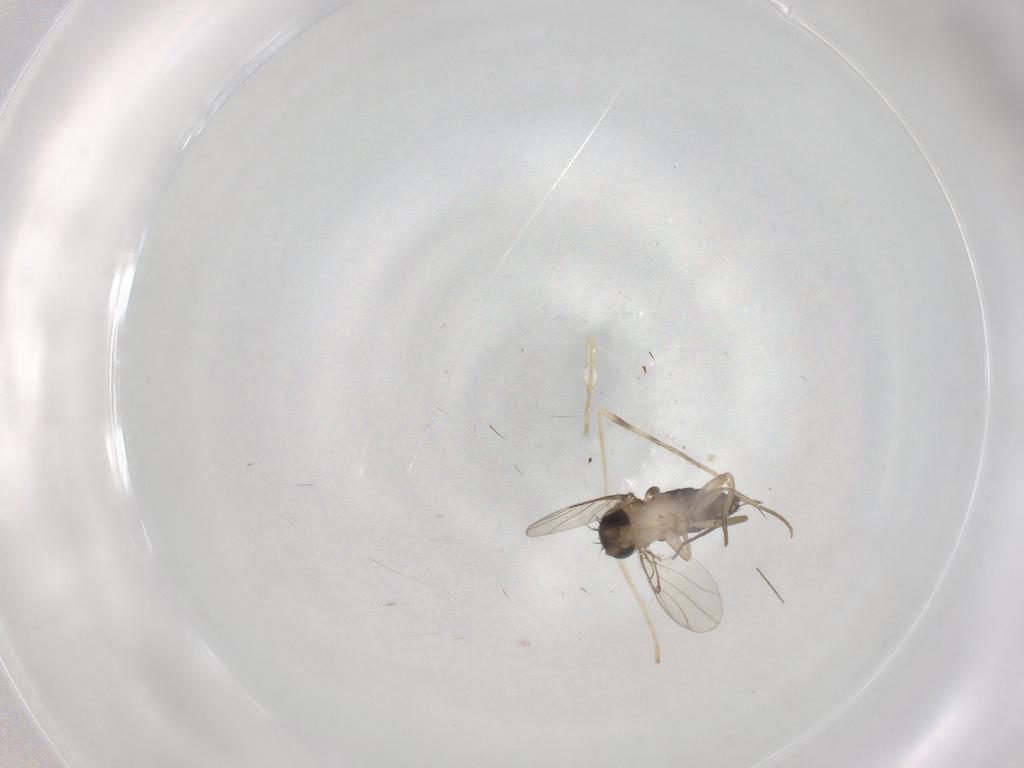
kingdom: Animalia
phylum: Arthropoda
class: Insecta
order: Diptera
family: Limoniidae
